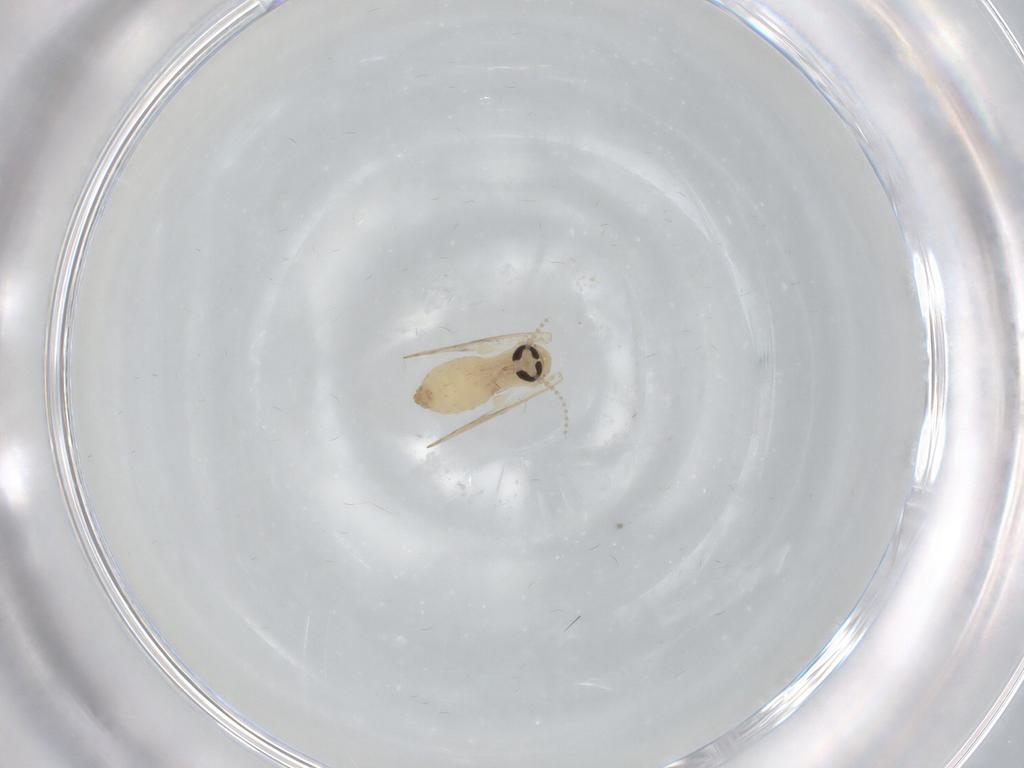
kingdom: Animalia
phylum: Arthropoda
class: Insecta
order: Diptera
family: Psychodidae
